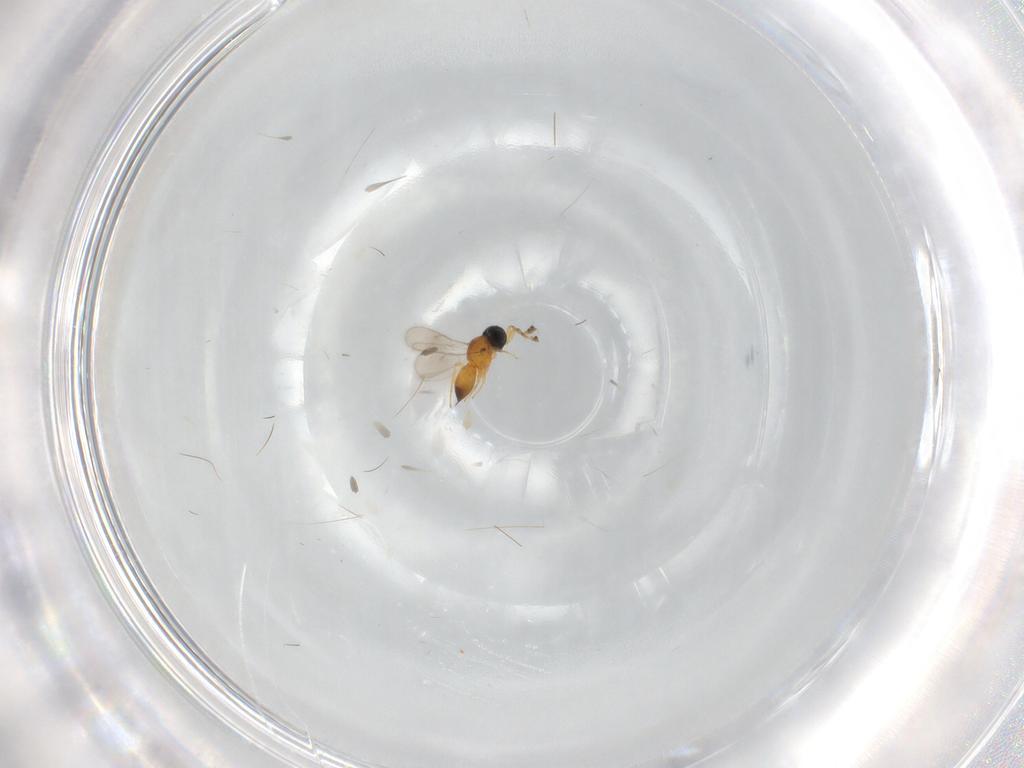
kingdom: Animalia
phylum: Arthropoda
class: Insecta
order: Hymenoptera
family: Scelionidae
